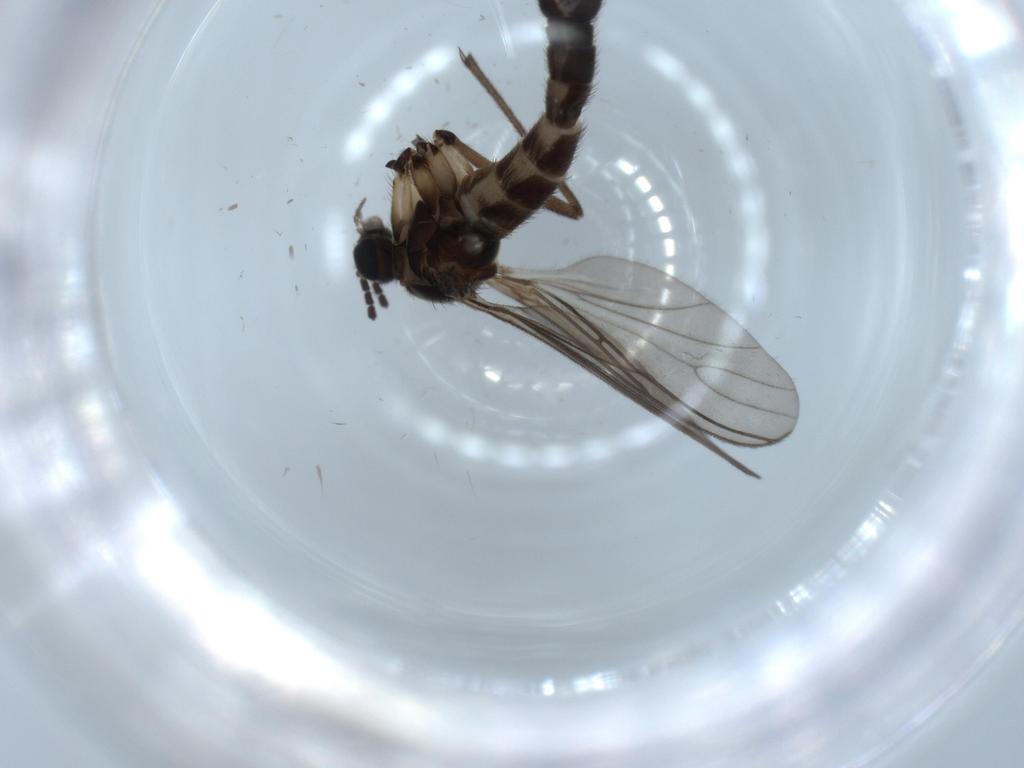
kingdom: Animalia
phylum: Arthropoda
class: Insecta
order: Diptera
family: Sciaridae
